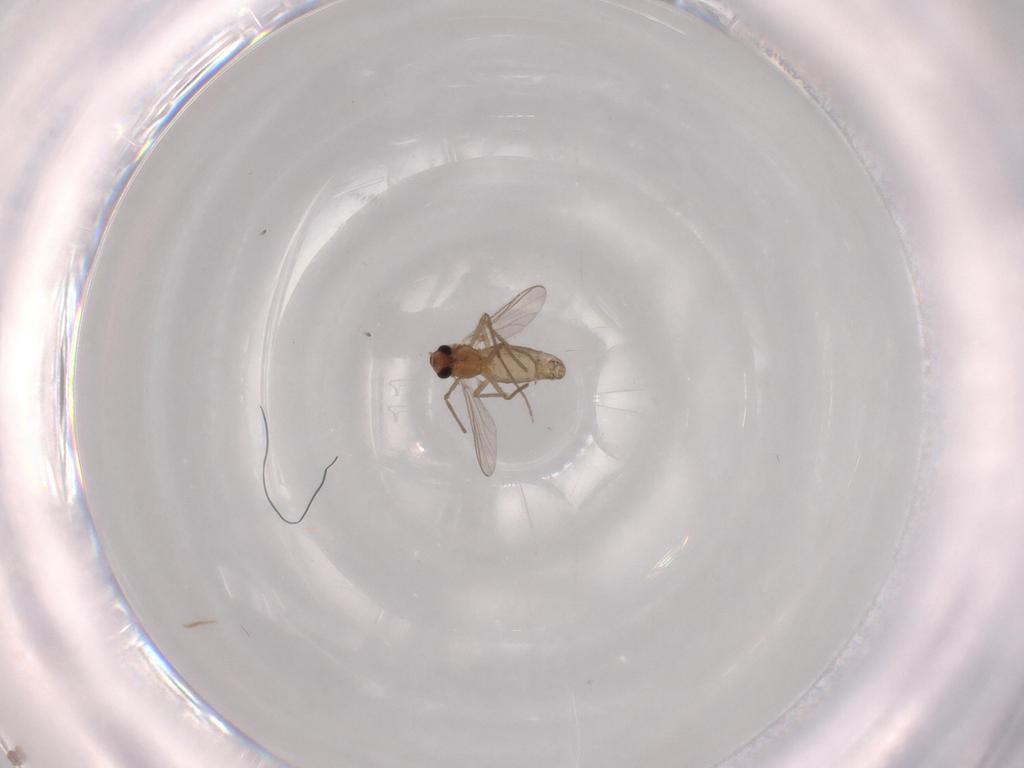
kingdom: Animalia
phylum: Arthropoda
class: Insecta
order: Diptera
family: Chironomidae
